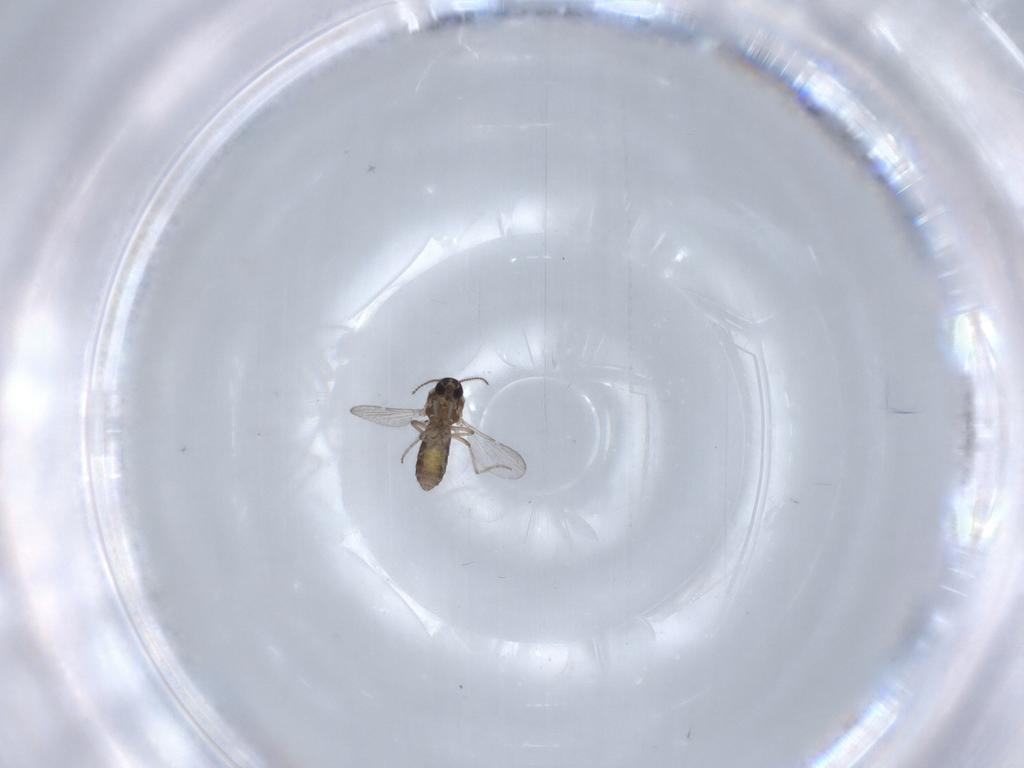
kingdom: Animalia
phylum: Arthropoda
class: Insecta
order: Diptera
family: Ceratopogonidae
